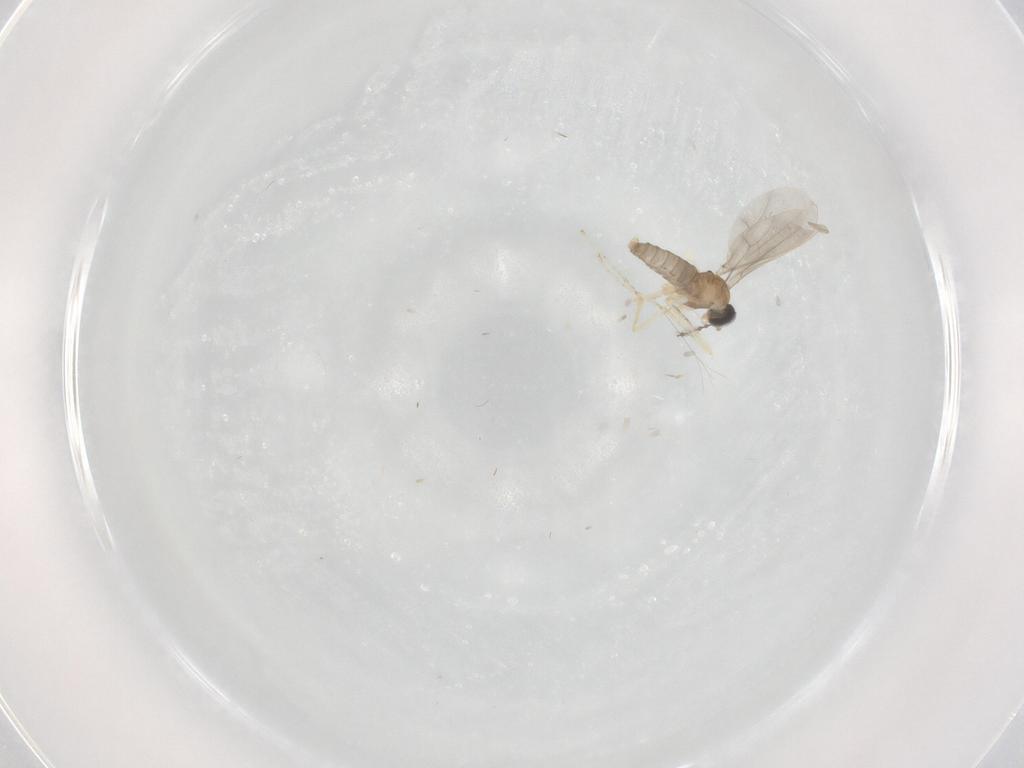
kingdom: Animalia
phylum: Arthropoda
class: Insecta
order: Diptera
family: Cecidomyiidae
